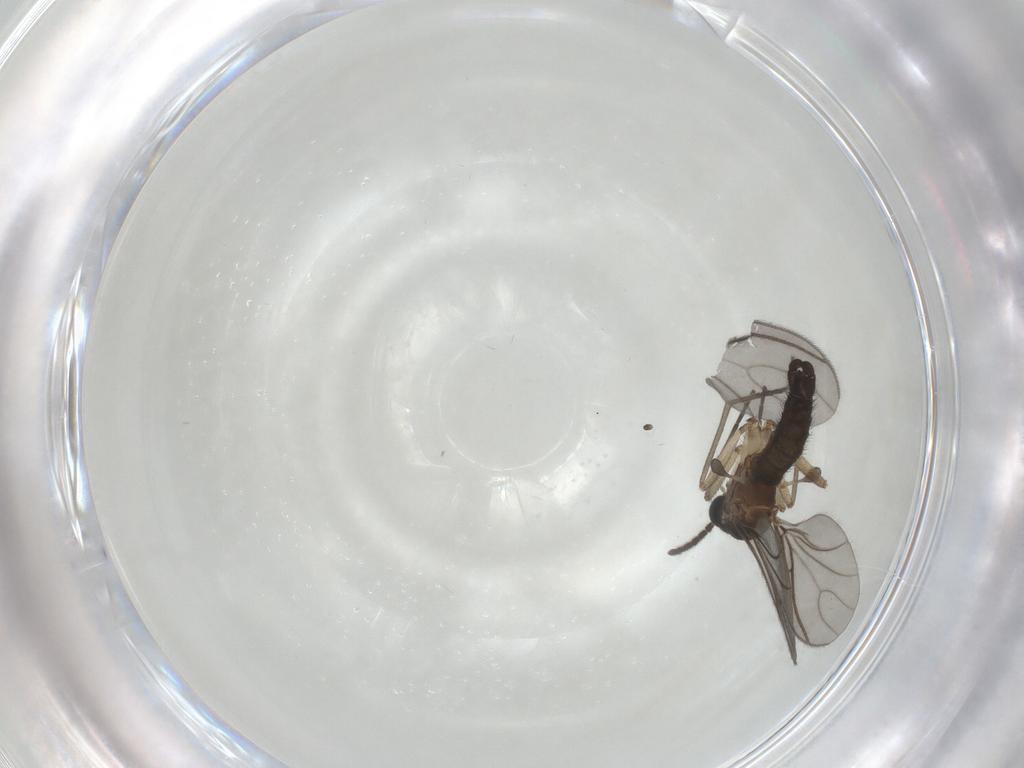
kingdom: Animalia
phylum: Arthropoda
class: Insecta
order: Diptera
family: Sciaridae
